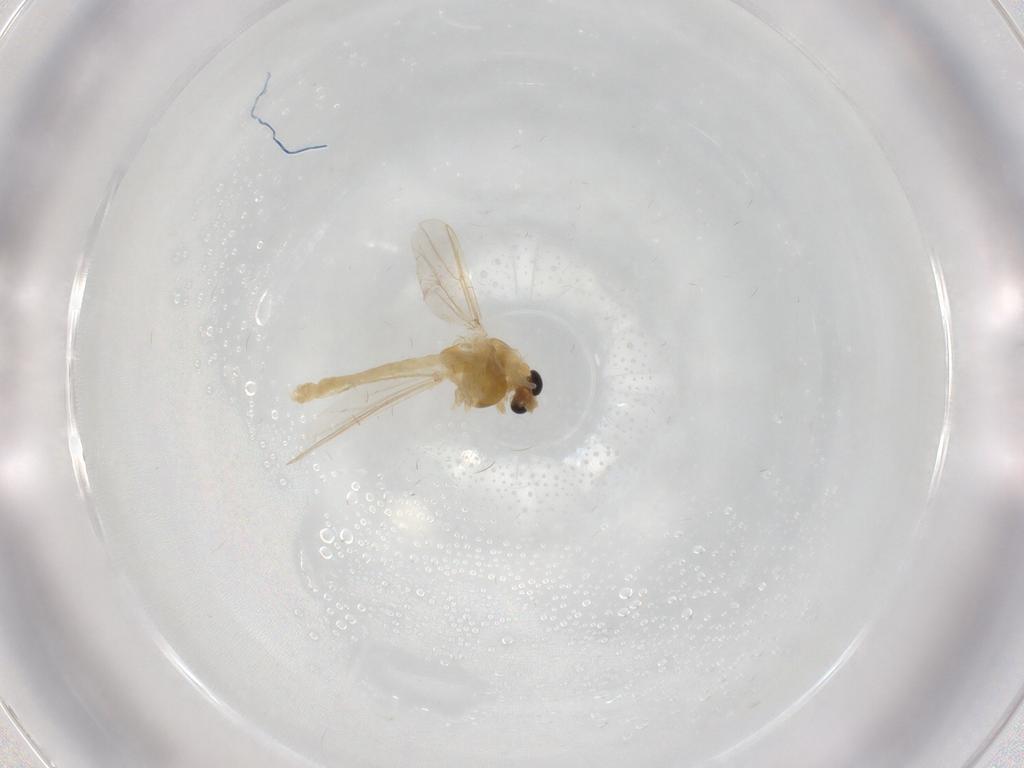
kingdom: Animalia
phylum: Arthropoda
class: Insecta
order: Diptera
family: Chironomidae
